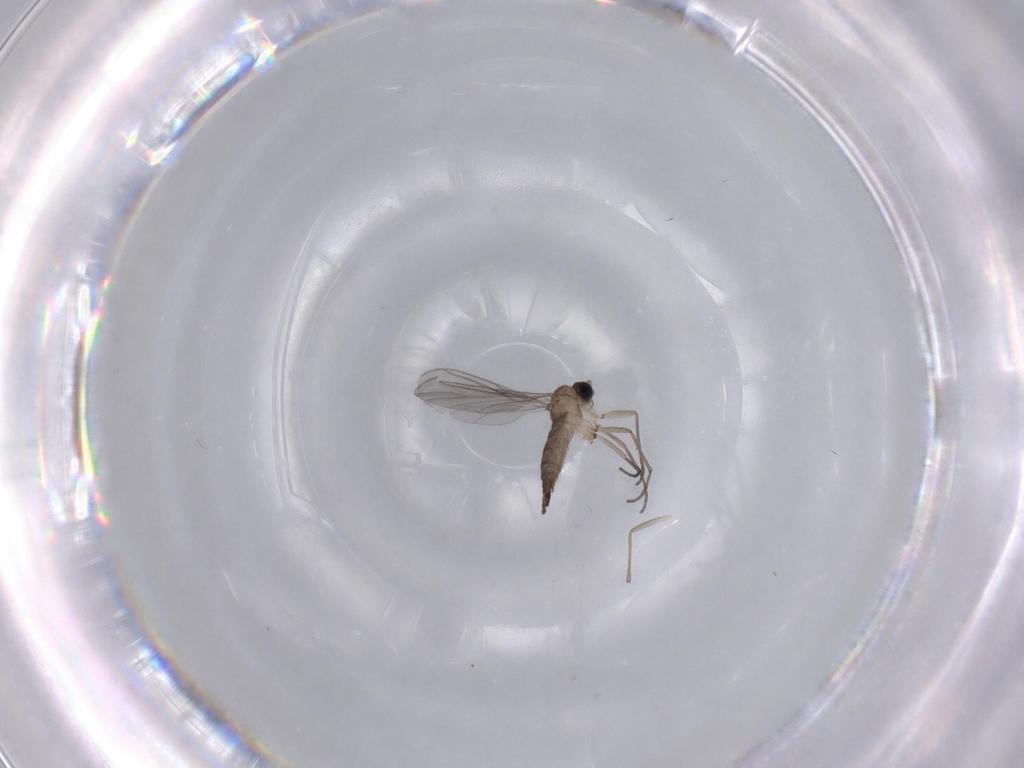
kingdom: Animalia
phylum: Arthropoda
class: Insecta
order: Diptera
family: Sciaridae
